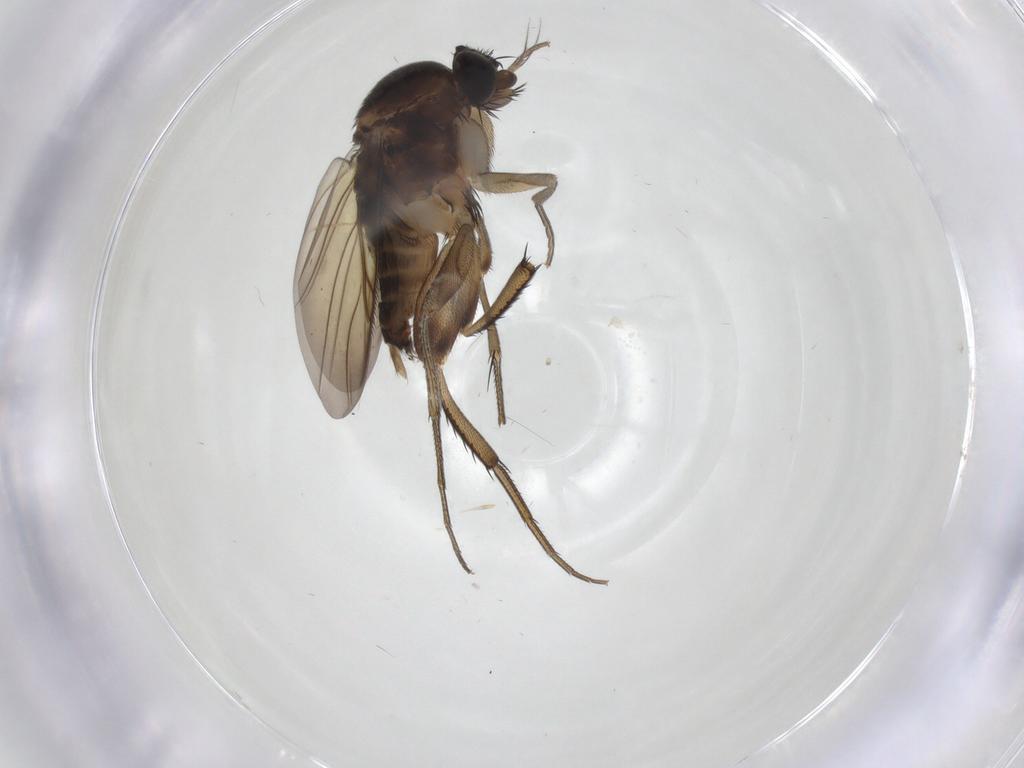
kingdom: Animalia
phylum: Arthropoda
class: Insecta
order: Diptera
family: Phoridae
